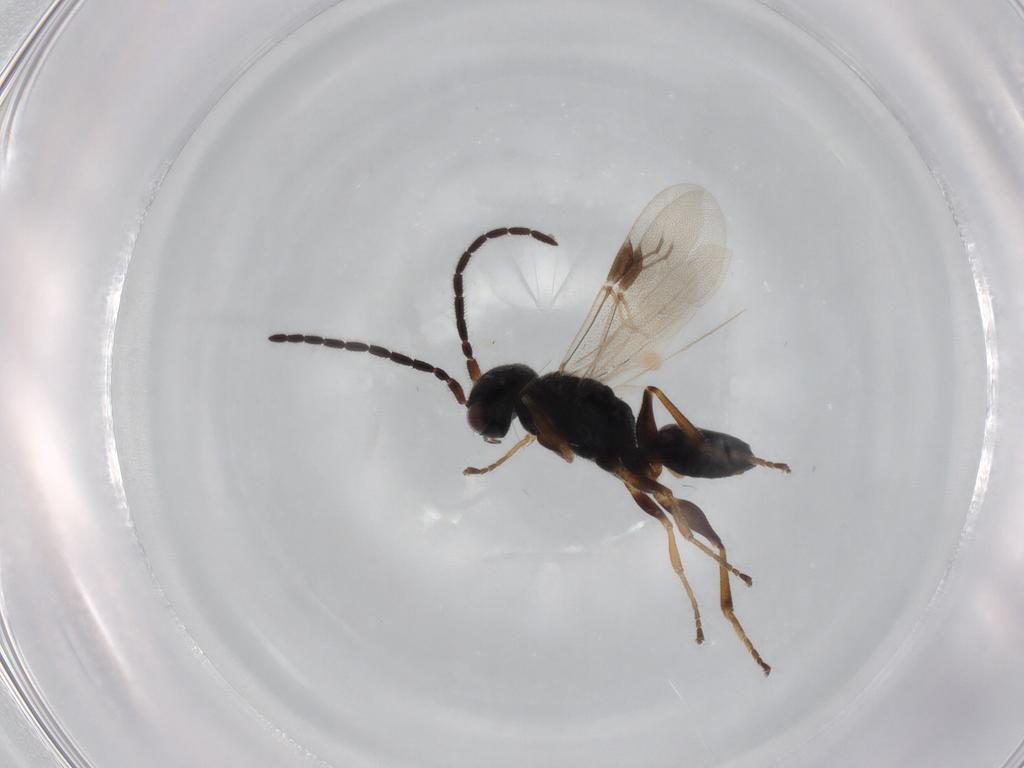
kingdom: Animalia
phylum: Arthropoda
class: Insecta
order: Hymenoptera
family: Dryinidae
